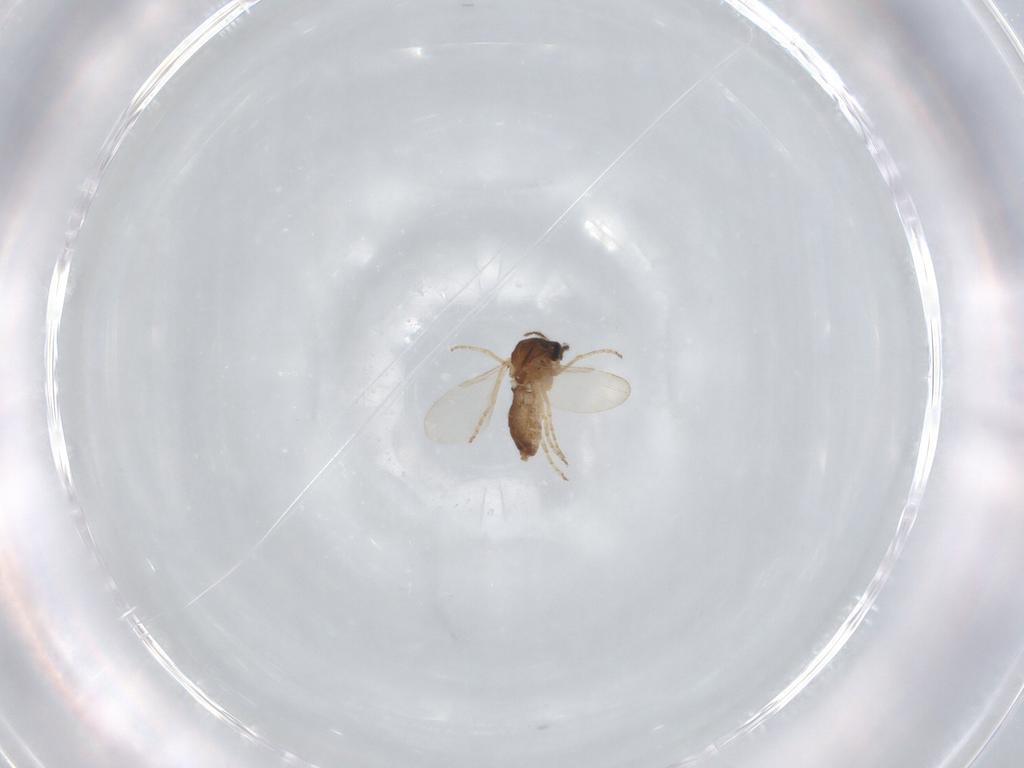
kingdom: Animalia
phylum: Arthropoda
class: Insecta
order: Diptera
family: Ceratopogonidae
